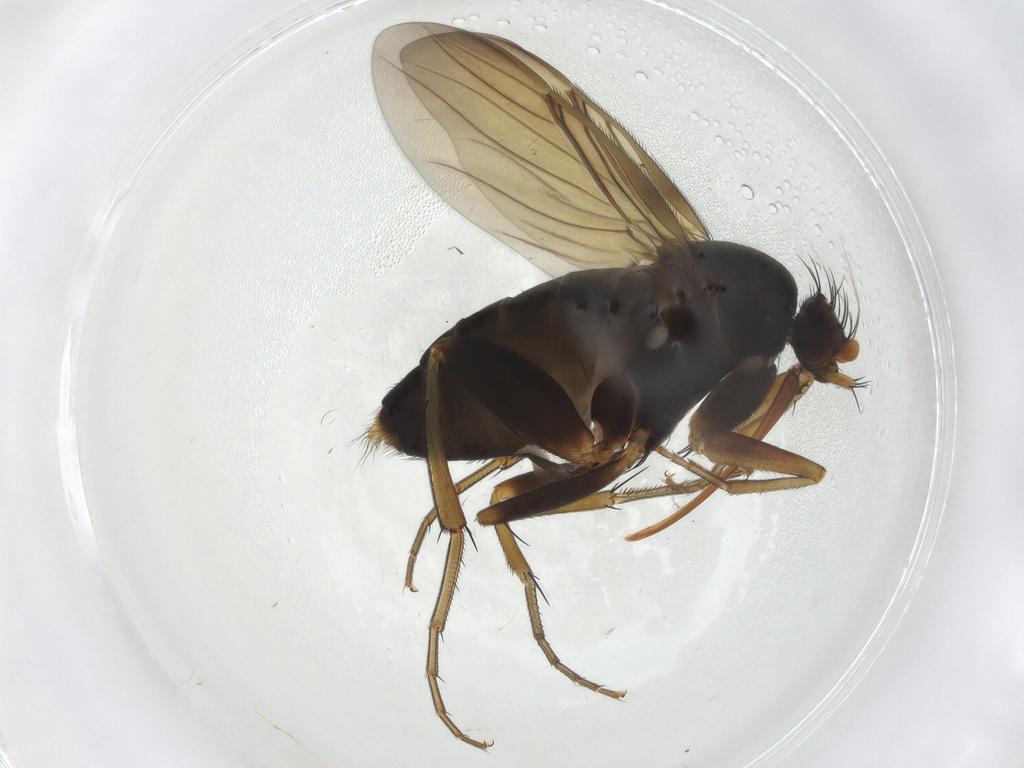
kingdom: Animalia
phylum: Arthropoda
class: Insecta
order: Diptera
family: Phoridae
